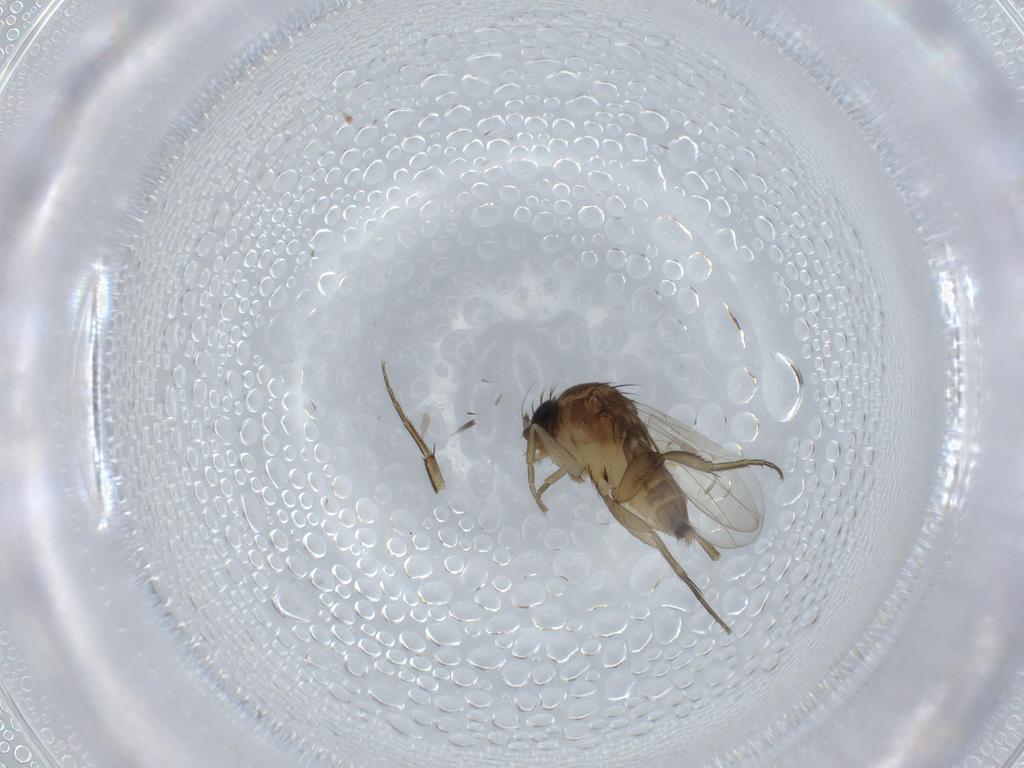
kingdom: Animalia
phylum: Arthropoda
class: Insecta
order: Diptera
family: Phoridae
